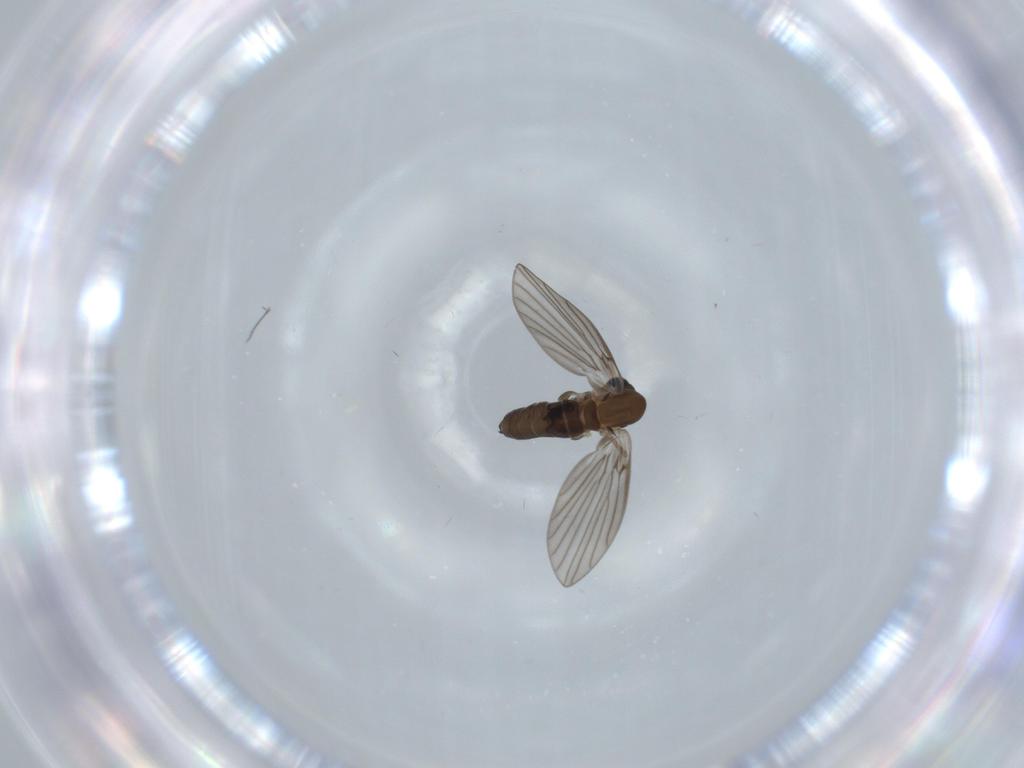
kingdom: Animalia
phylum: Arthropoda
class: Insecta
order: Diptera
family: Psychodidae
